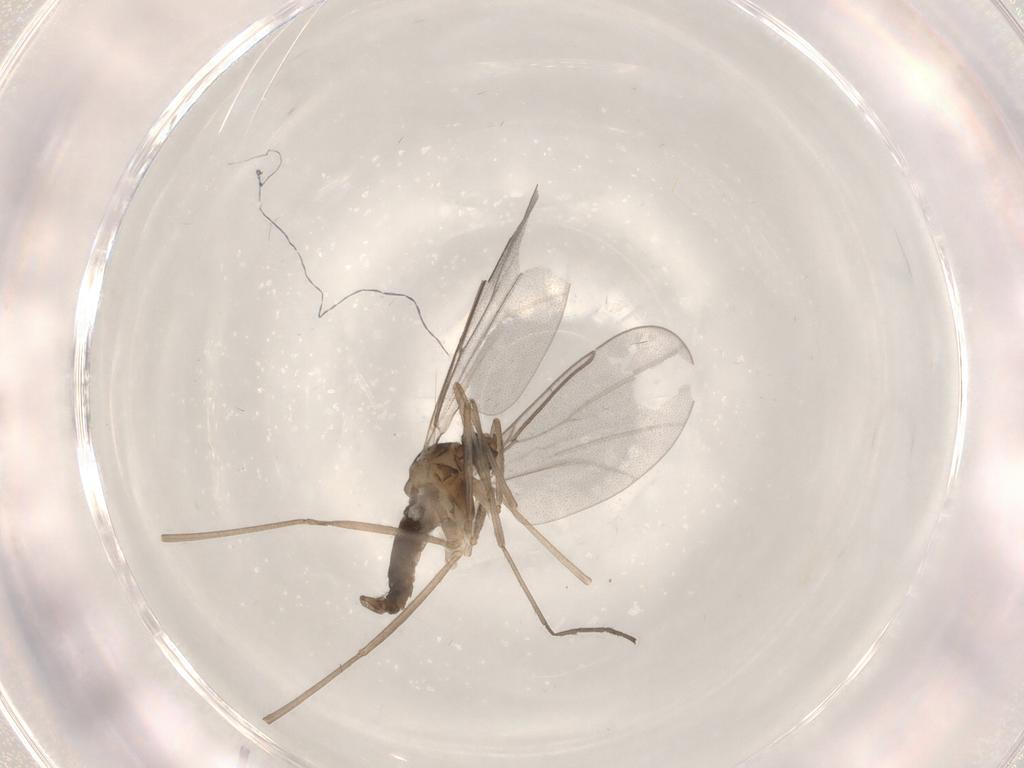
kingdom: Animalia
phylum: Arthropoda
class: Insecta
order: Diptera
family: Cecidomyiidae
